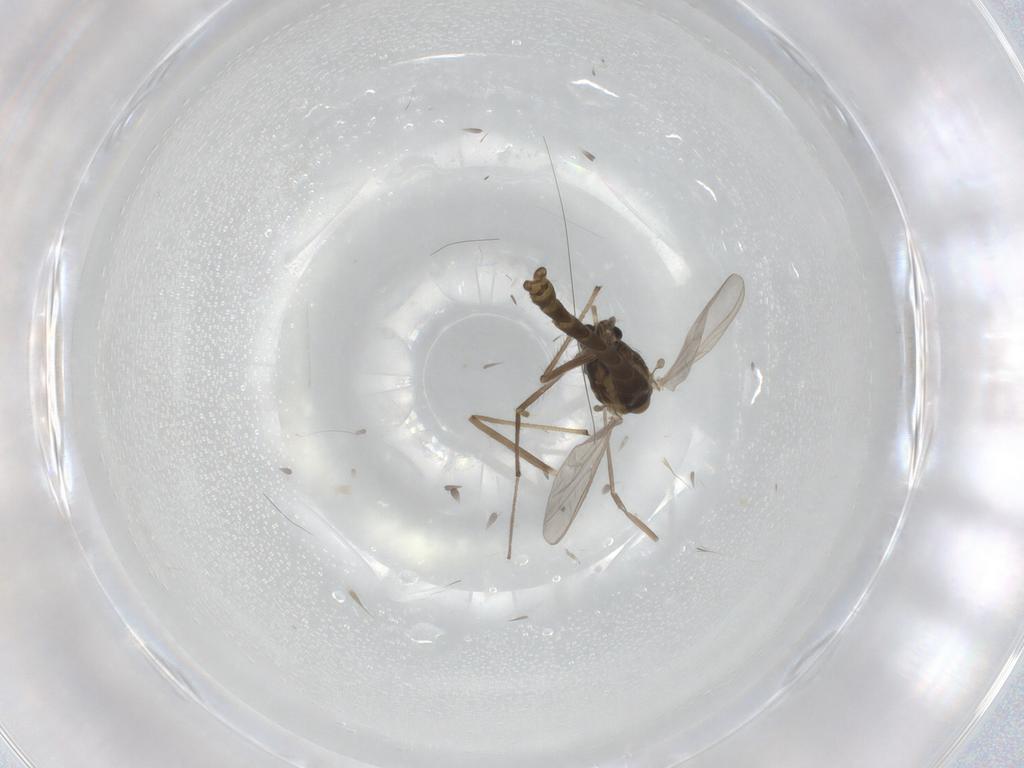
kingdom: Animalia
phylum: Arthropoda
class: Insecta
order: Diptera
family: Chironomidae
